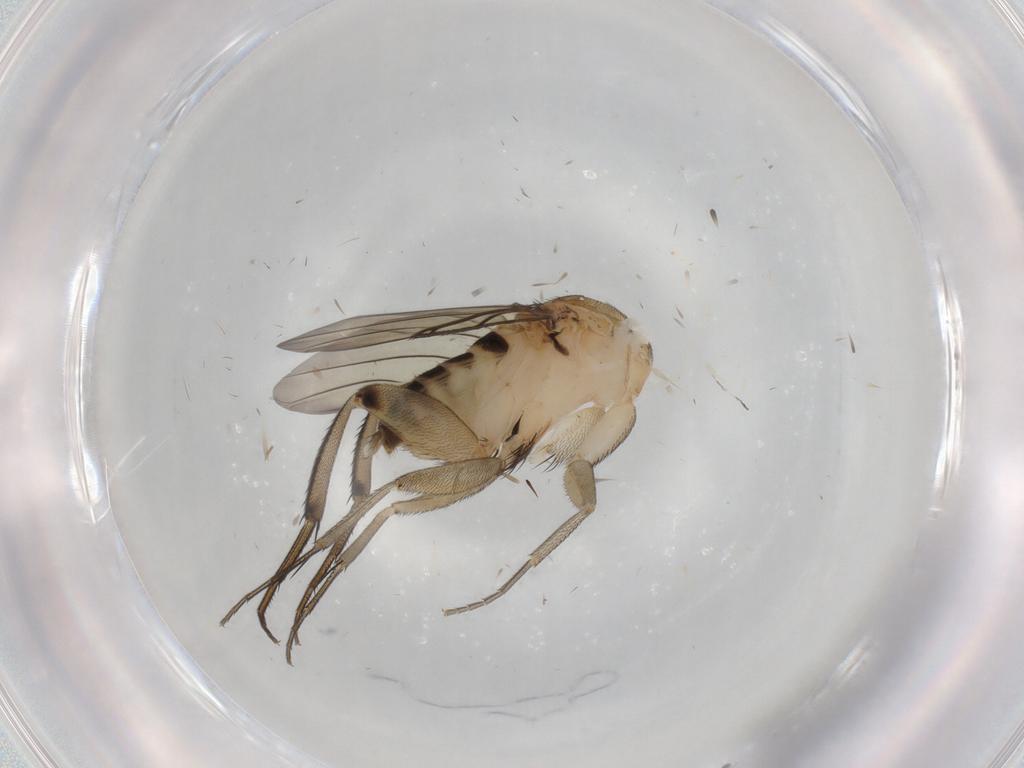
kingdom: Animalia
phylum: Arthropoda
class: Insecta
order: Diptera
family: Phoridae
